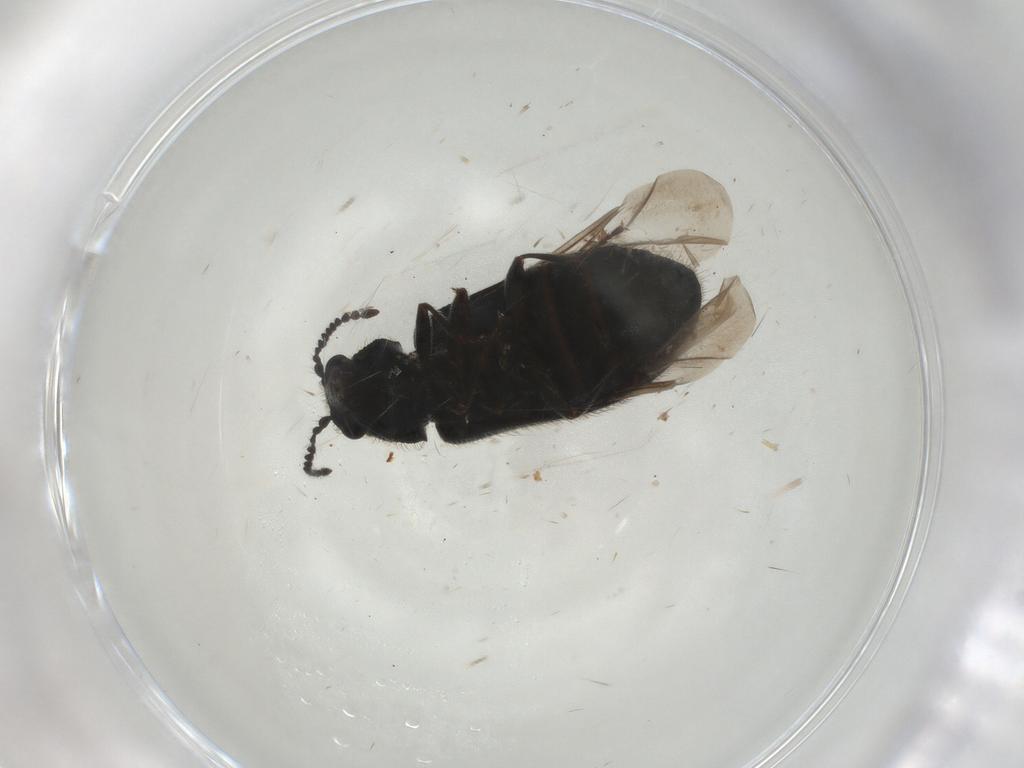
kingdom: Animalia
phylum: Arthropoda
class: Insecta
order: Coleoptera
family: Melyridae
